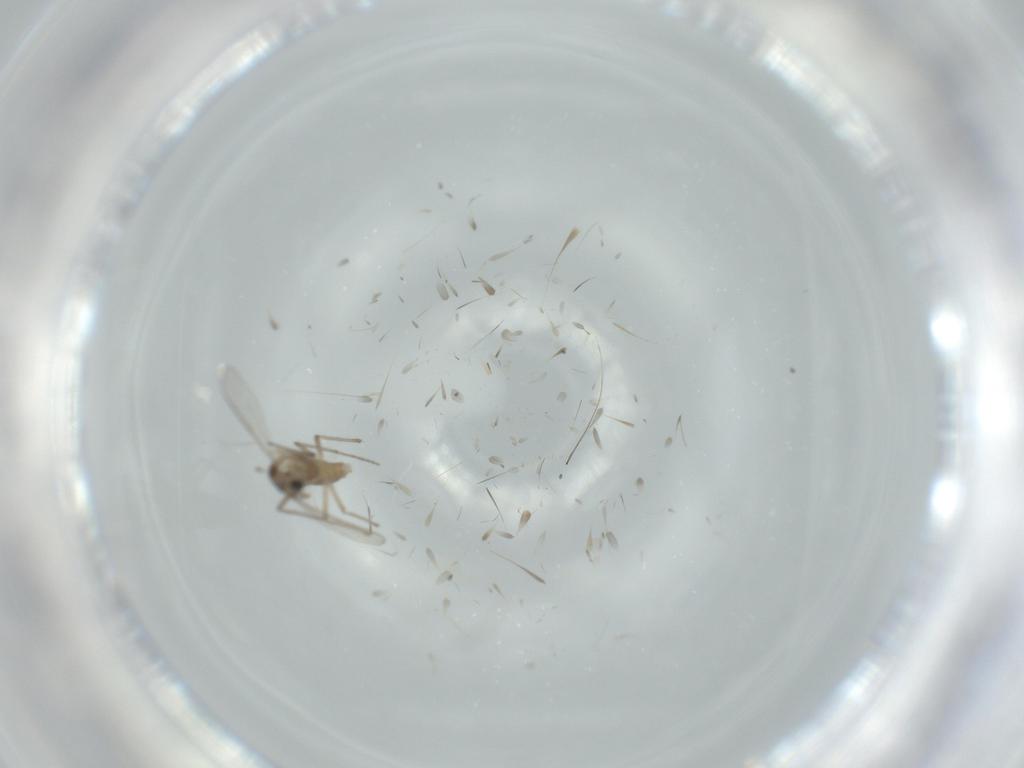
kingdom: Animalia
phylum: Arthropoda
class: Insecta
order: Diptera
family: Chironomidae
